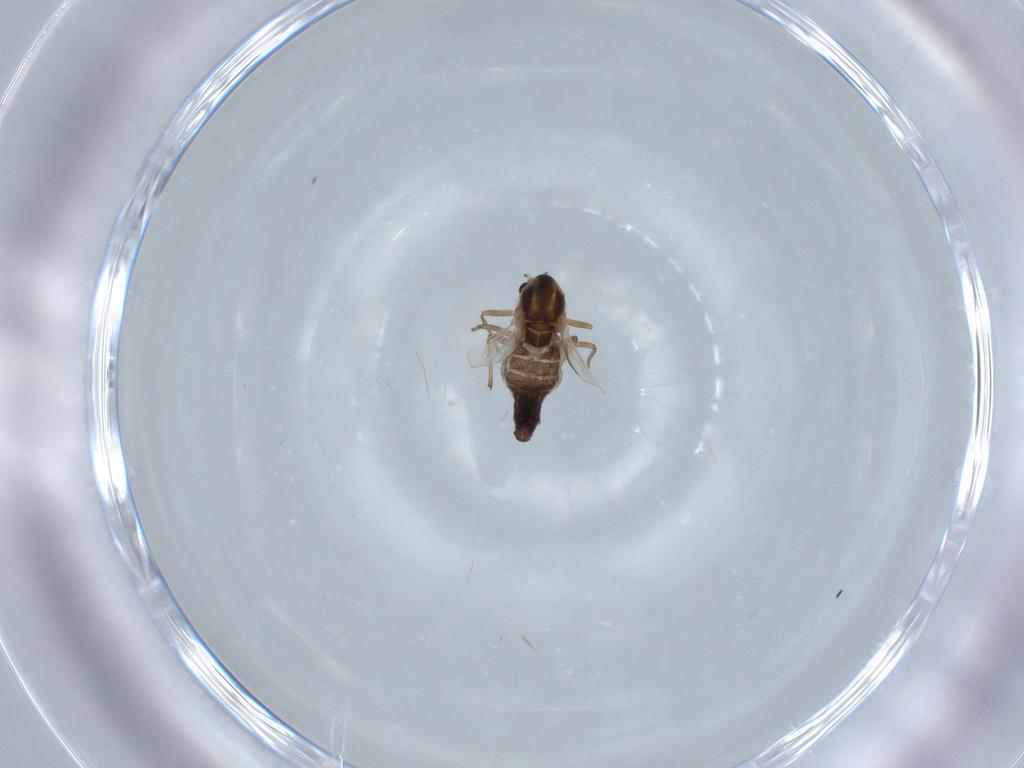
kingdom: Animalia
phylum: Arthropoda
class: Insecta
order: Diptera
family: Chironomidae
